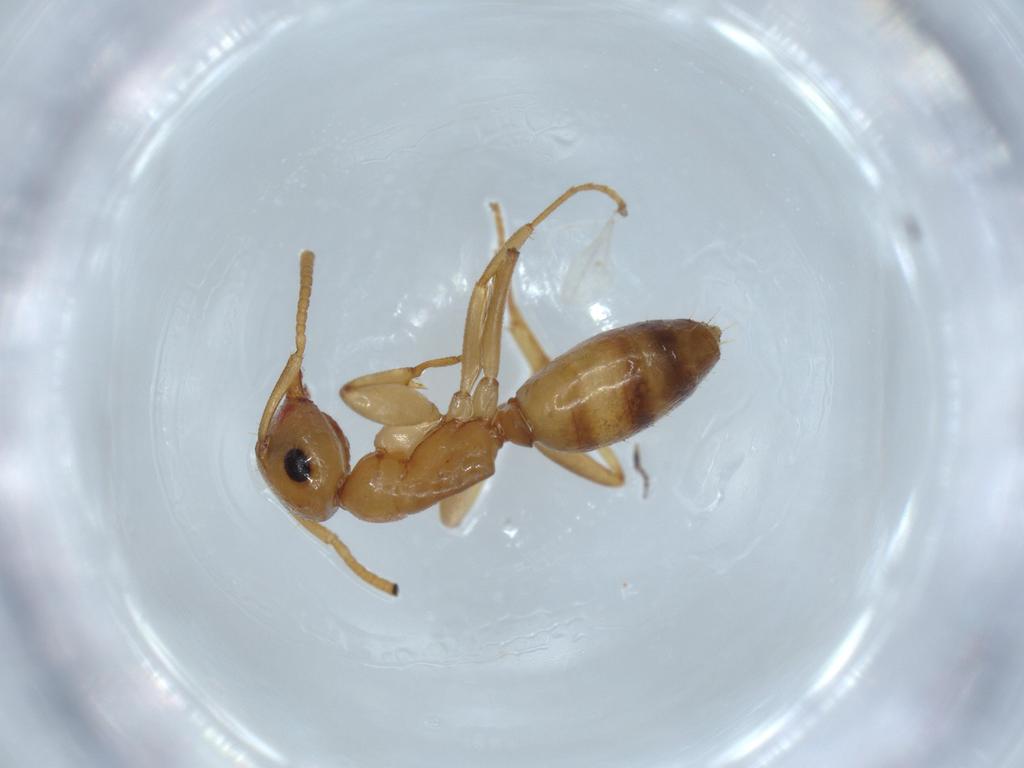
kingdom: Animalia
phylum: Arthropoda
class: Insecta
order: Hymenoptera
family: Formicidae
